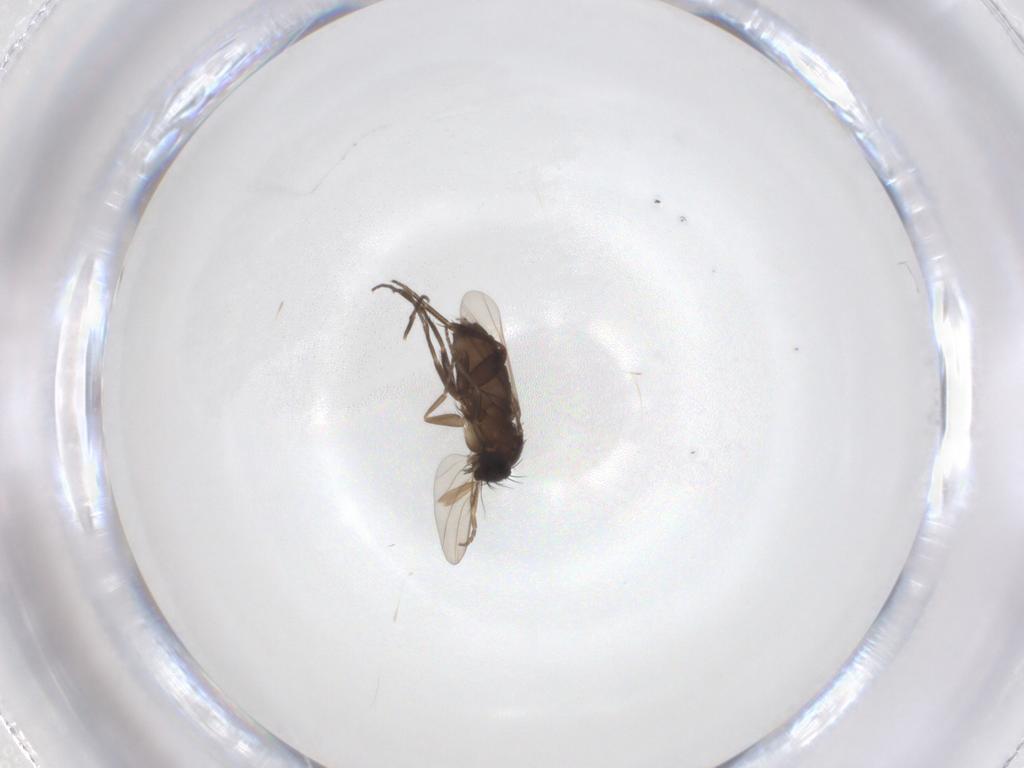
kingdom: Animalia
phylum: Arthropoda
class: Insecta
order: Diptera
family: Phoridae
